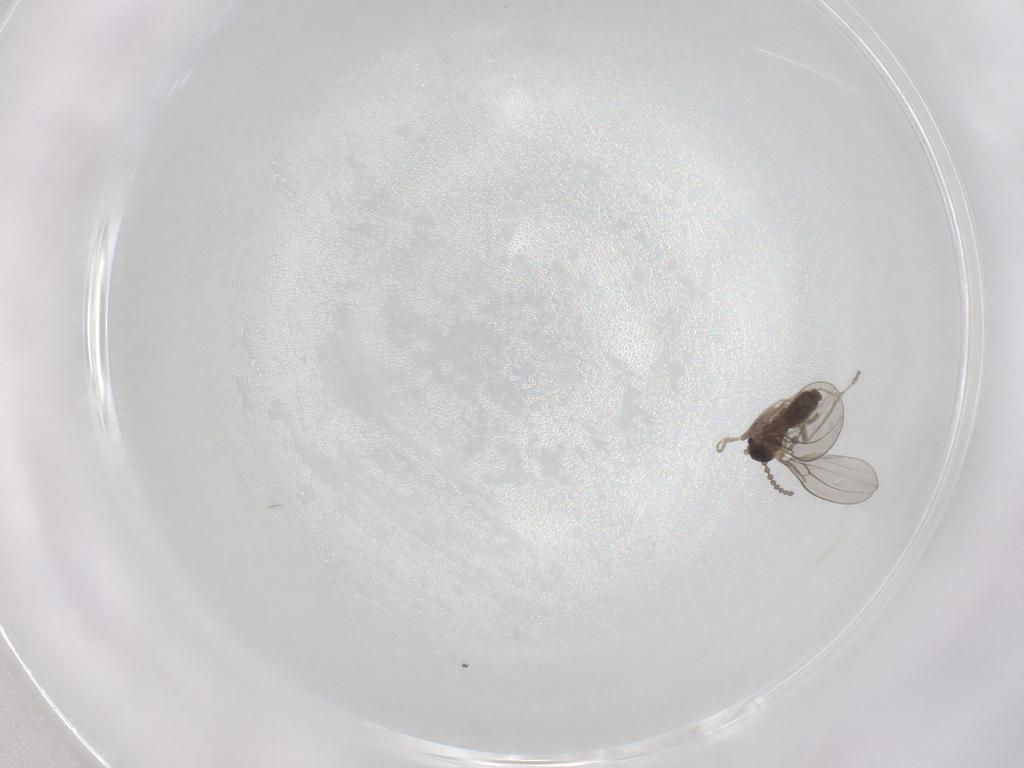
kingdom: Animalia
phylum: Arthropoda
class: Insecta
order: Diptera
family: Cecidomyiidae
